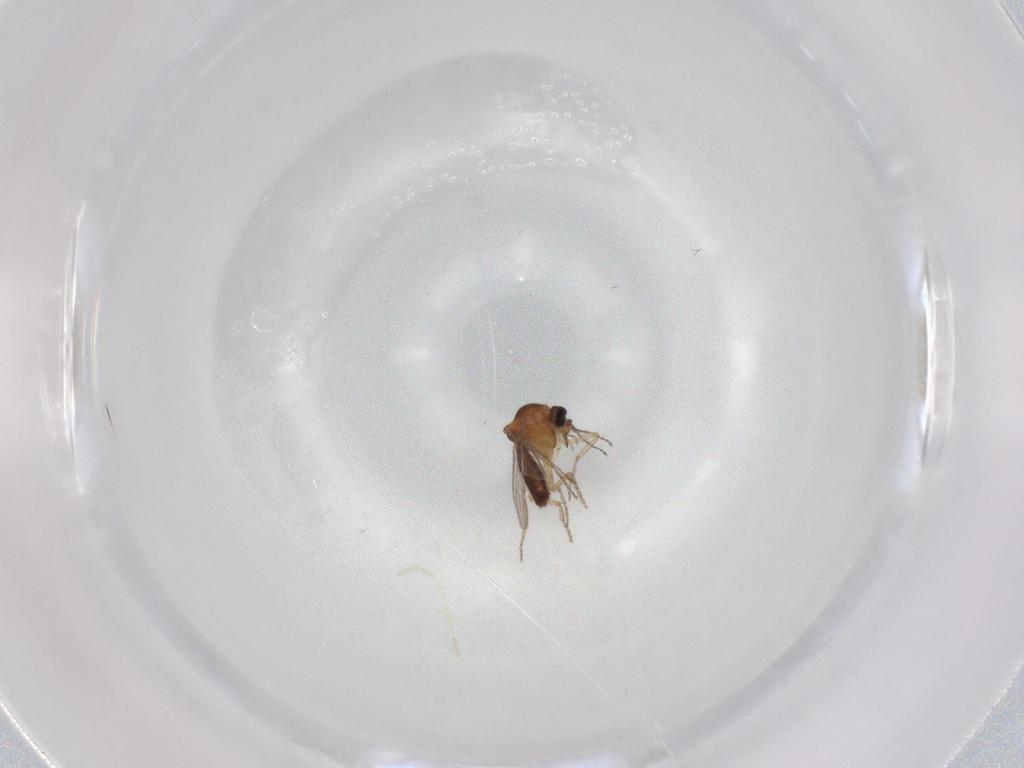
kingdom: Animalia
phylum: Arthropoda
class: Insecta
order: Diptera
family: Ceratopogonidae
